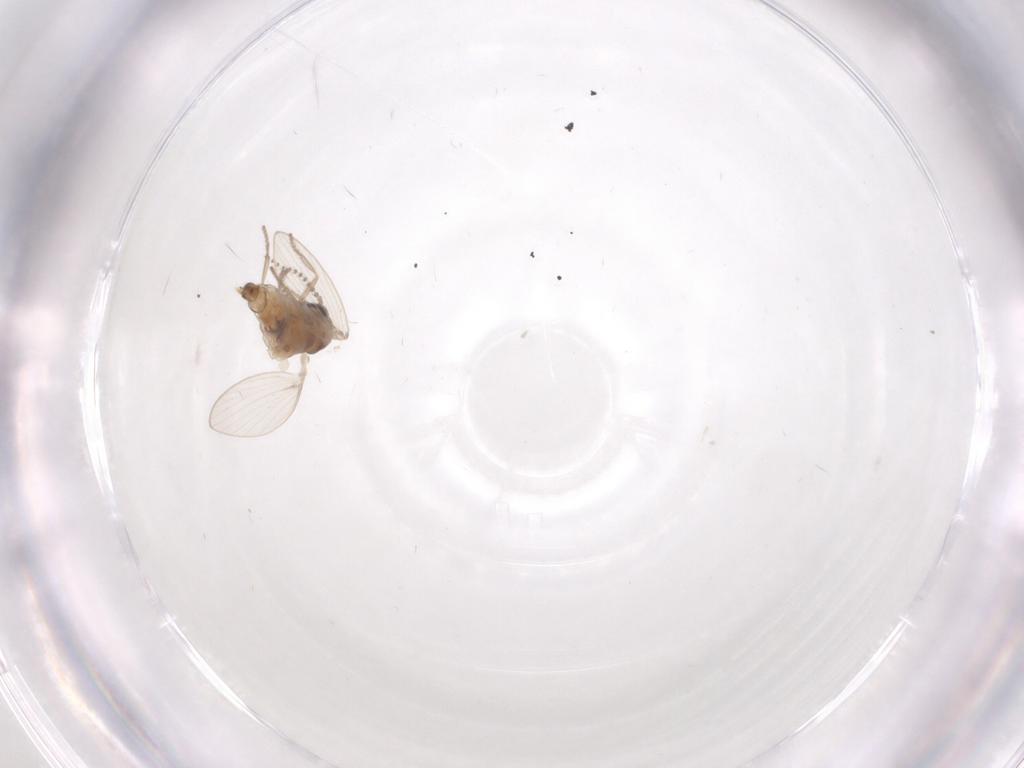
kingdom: Animalia
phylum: Arthropoda
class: Insecta
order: Diptera
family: Psychodidae
